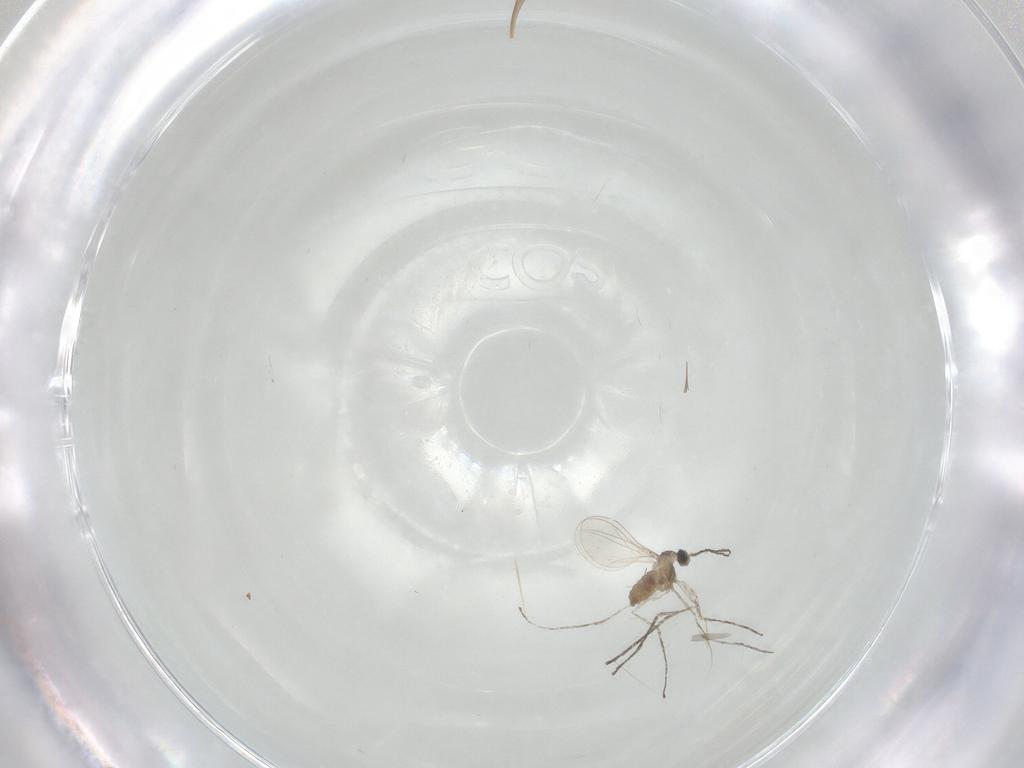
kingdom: Animalia
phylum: Arthropoda
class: Insecta
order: Diptera
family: Cecidomyiidae
